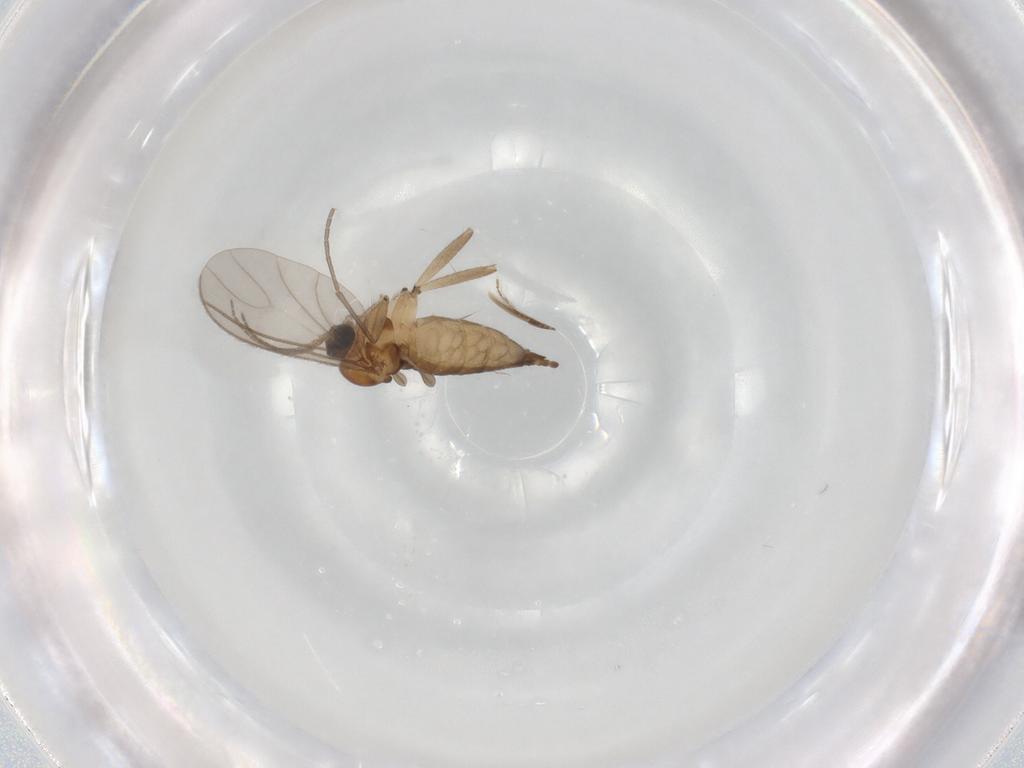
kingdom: Animalia
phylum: Arthropoda
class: Insecta
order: Diptera
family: Sciaridae
